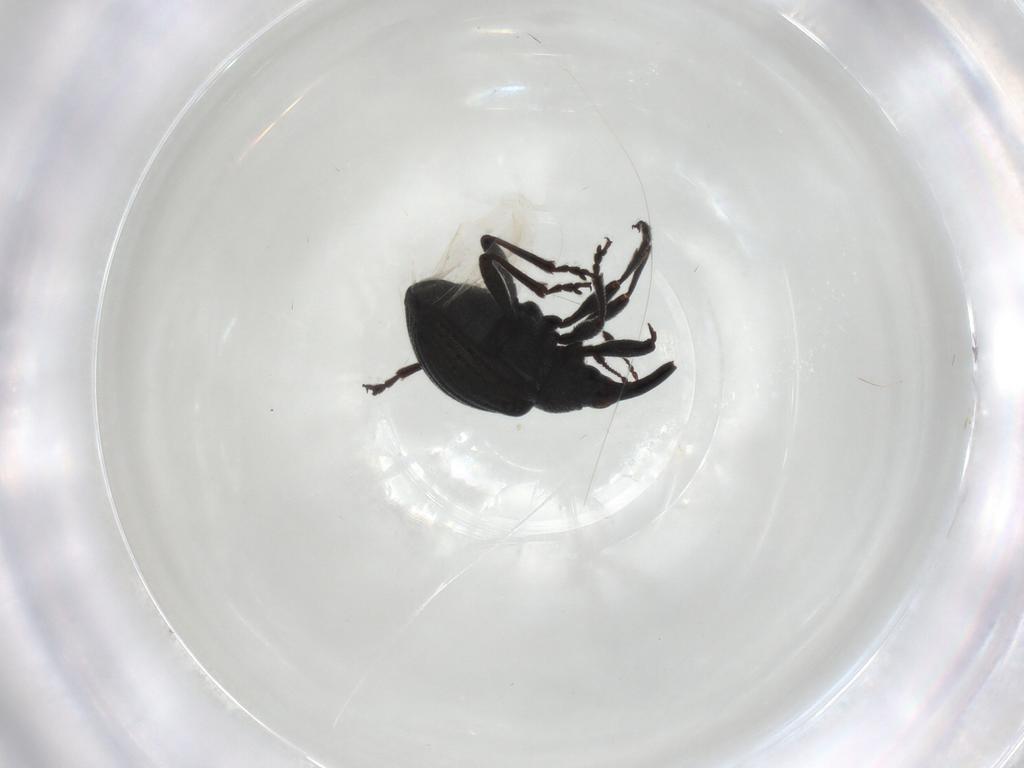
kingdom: Animalia
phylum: Arthropoda
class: Insecta
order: Coleoptera
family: Brentidae
